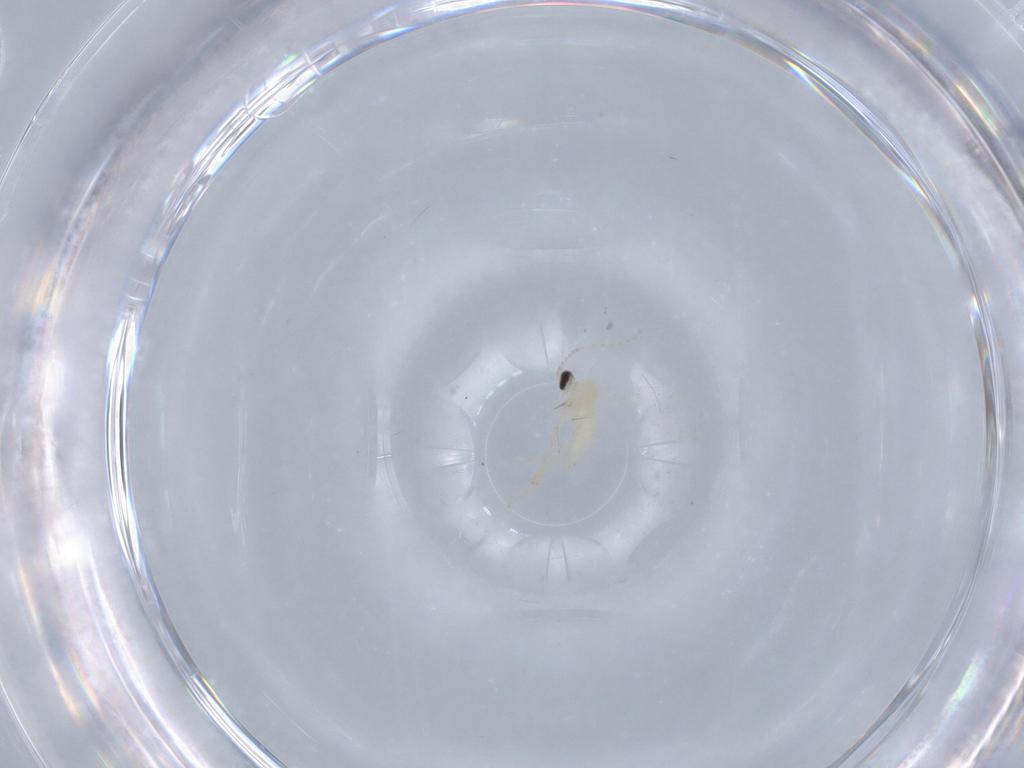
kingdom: Animalia
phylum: Arthropoda
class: Insecta
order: Diptera
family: Cecidomyiidae
